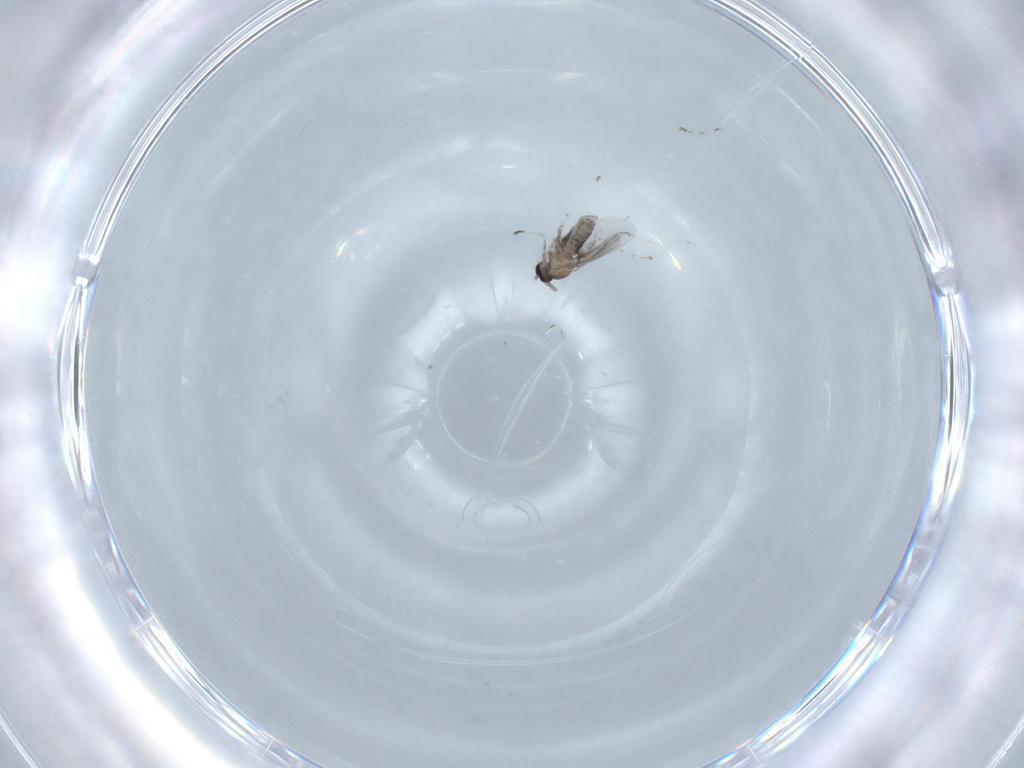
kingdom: Animalia
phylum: Arthropoda
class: Insecta
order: Diptera
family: Cecidomyiidae
